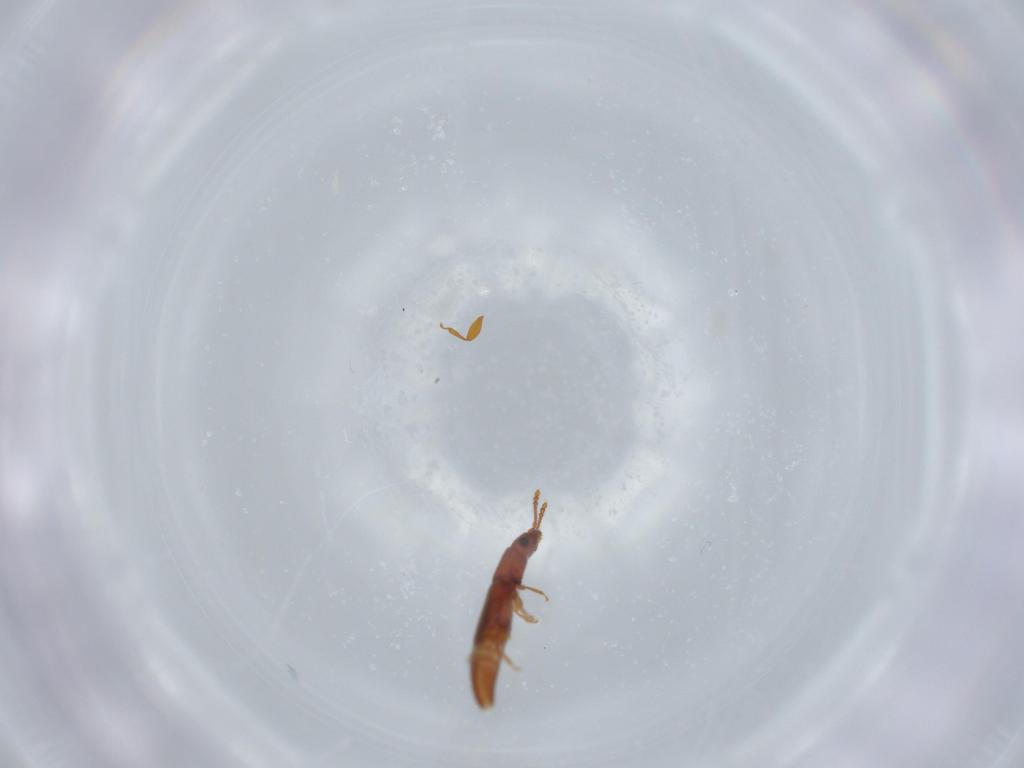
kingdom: Animalia
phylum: Arthropoda
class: Insecta
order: Coleoptera
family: Smicripidae
